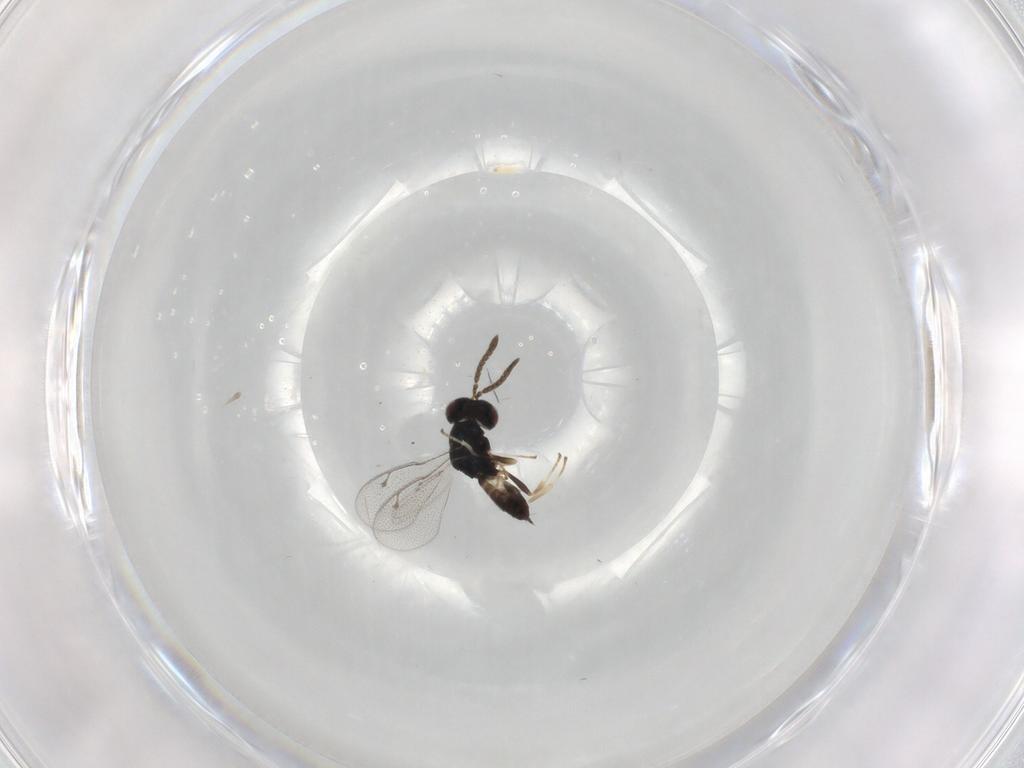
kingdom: Animalia
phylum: Arthropoda
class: Insecta
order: Hymenoptera
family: Pteromalidae
